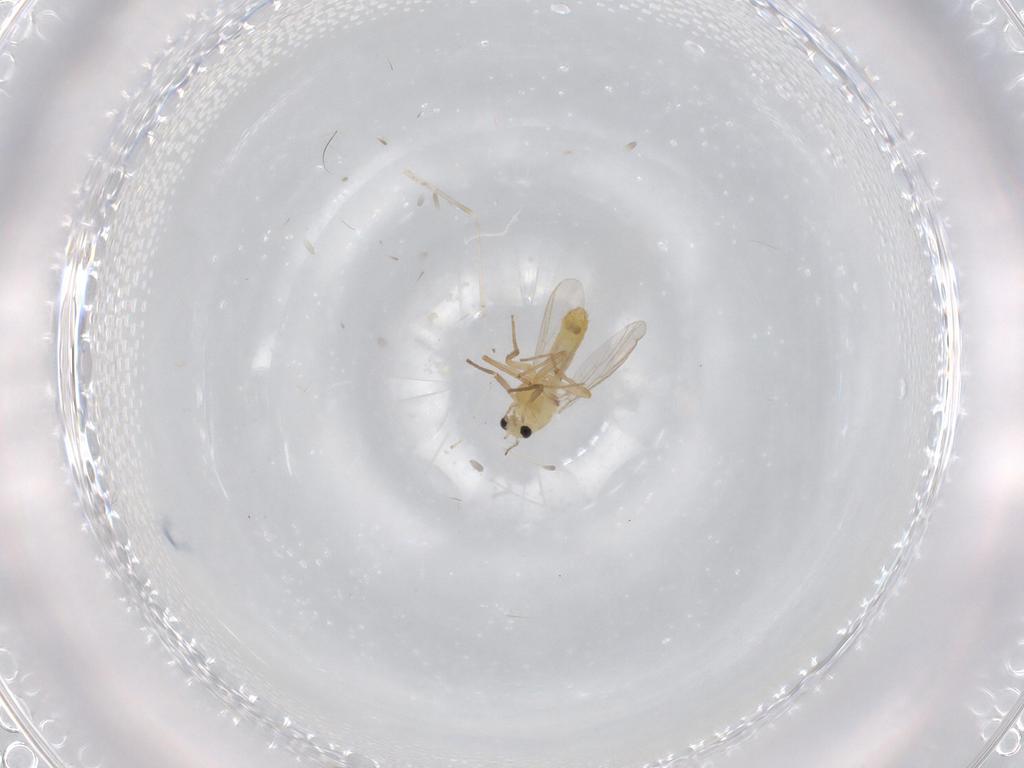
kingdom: Animalia
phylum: Arthropoda
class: Insecta
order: Diptera
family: Chironomidae
